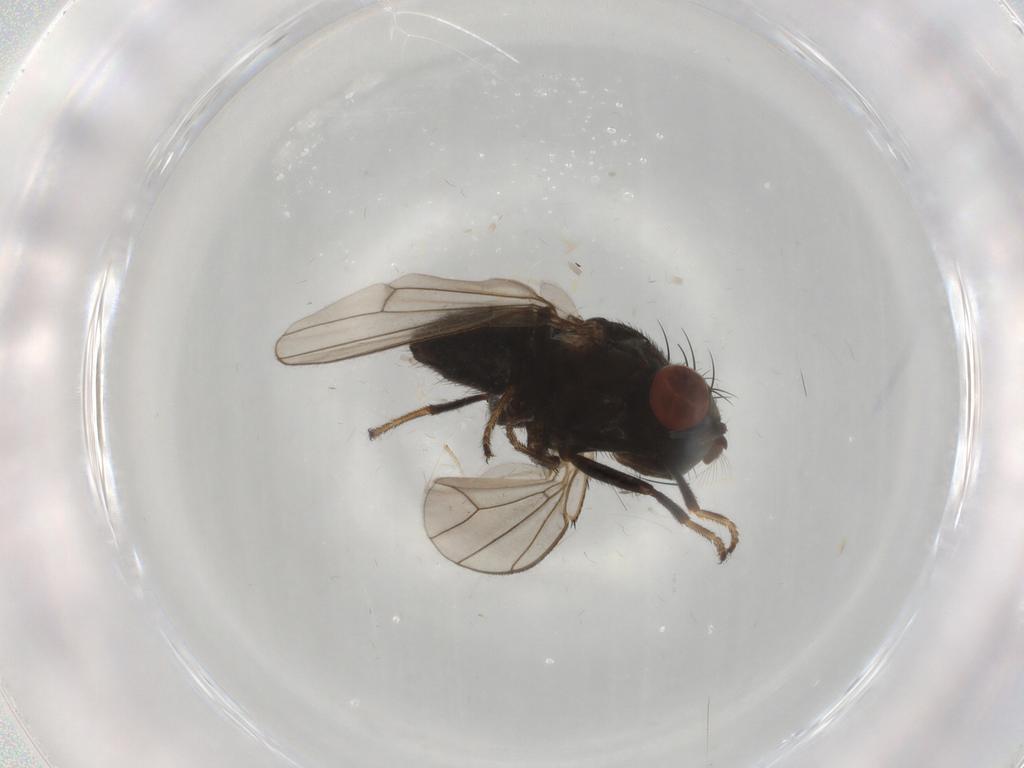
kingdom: Animalia
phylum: Arthropoda
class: Insecta
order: Diptera
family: Ephydridae
